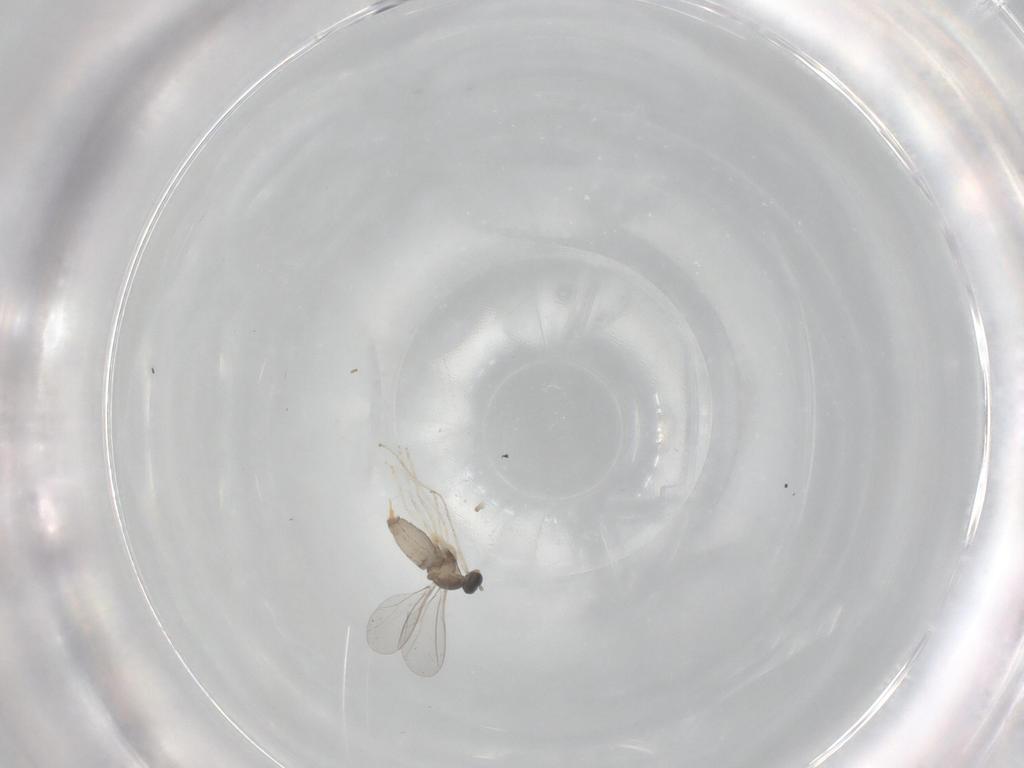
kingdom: Animalia
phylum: Arthropoda
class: Insecta
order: Diptera
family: Cecidomyiidae
